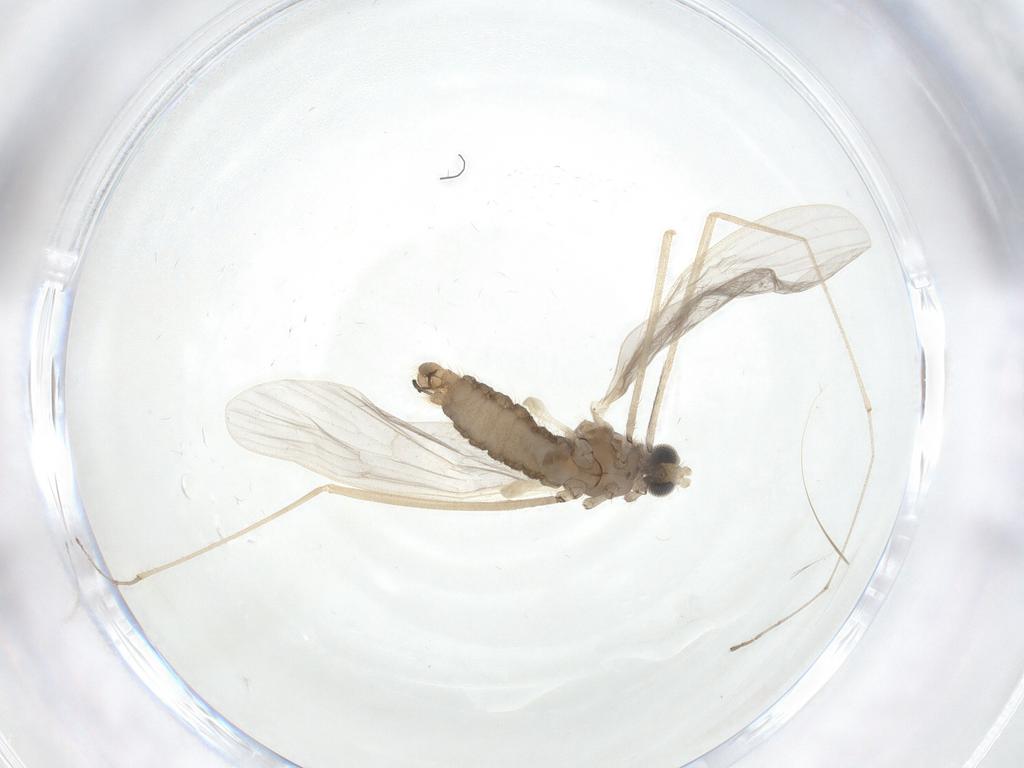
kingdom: Animalia
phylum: Arthropoda
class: Insecta
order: Diptera
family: Limoniidae
